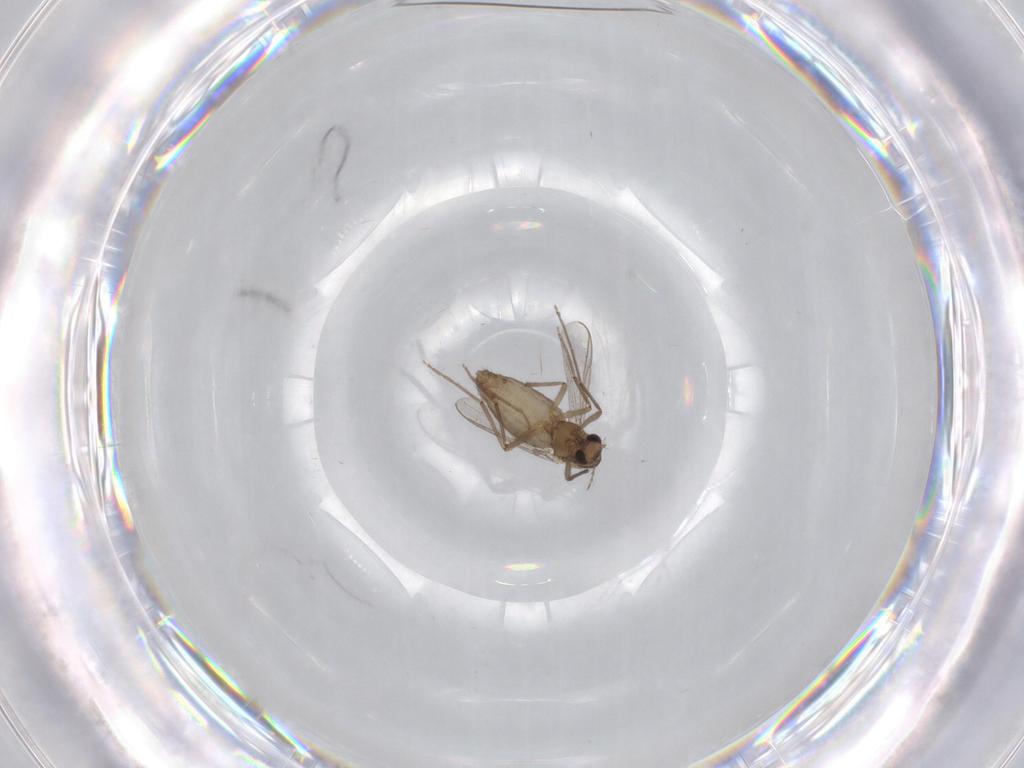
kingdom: Animalia
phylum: Arthropoda
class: Insecta
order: Diptera
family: Chironomidae
